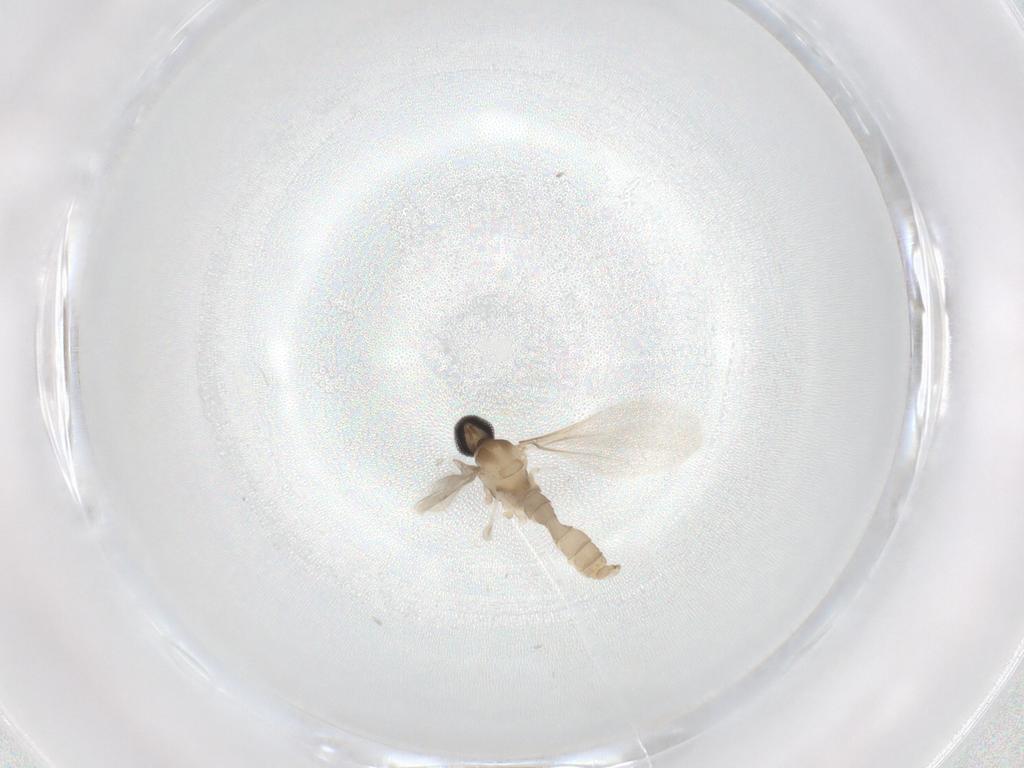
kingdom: Animalia
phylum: Arthropoda
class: Insecta
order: Diptera
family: Cecidomyiidae
